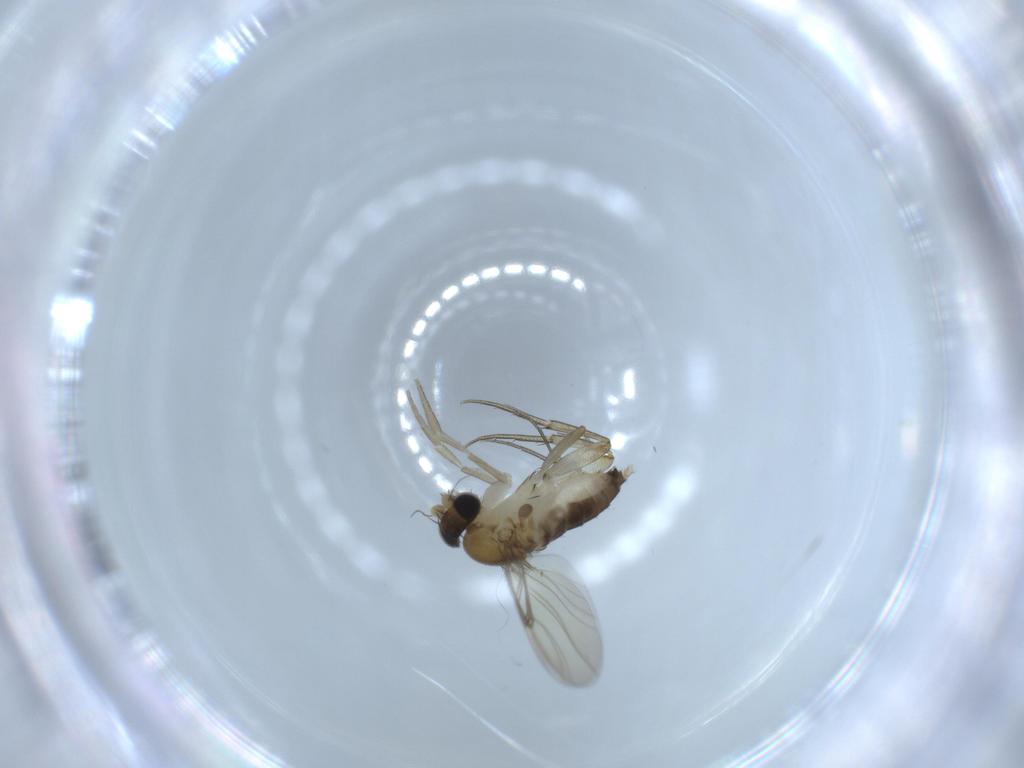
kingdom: Animalia
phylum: Arthropoda
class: Insecta
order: Diptera
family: Phoridae
